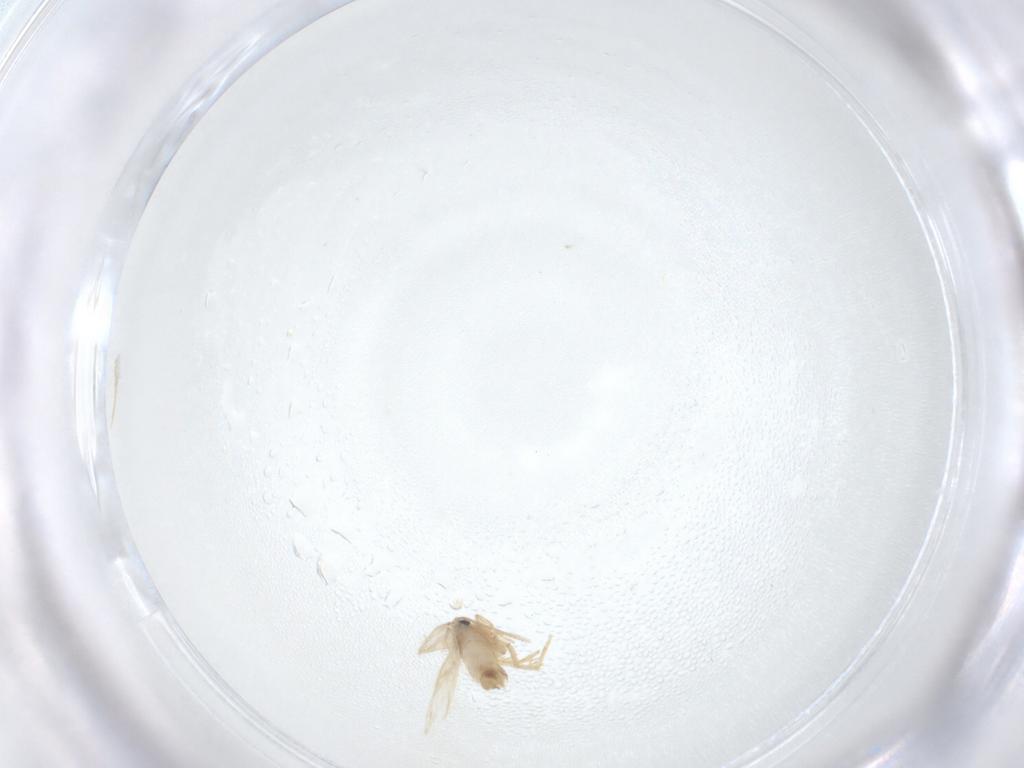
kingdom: Animalia
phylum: Arthropoda
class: Insecta
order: Lepidoptera
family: Nepticulidae
